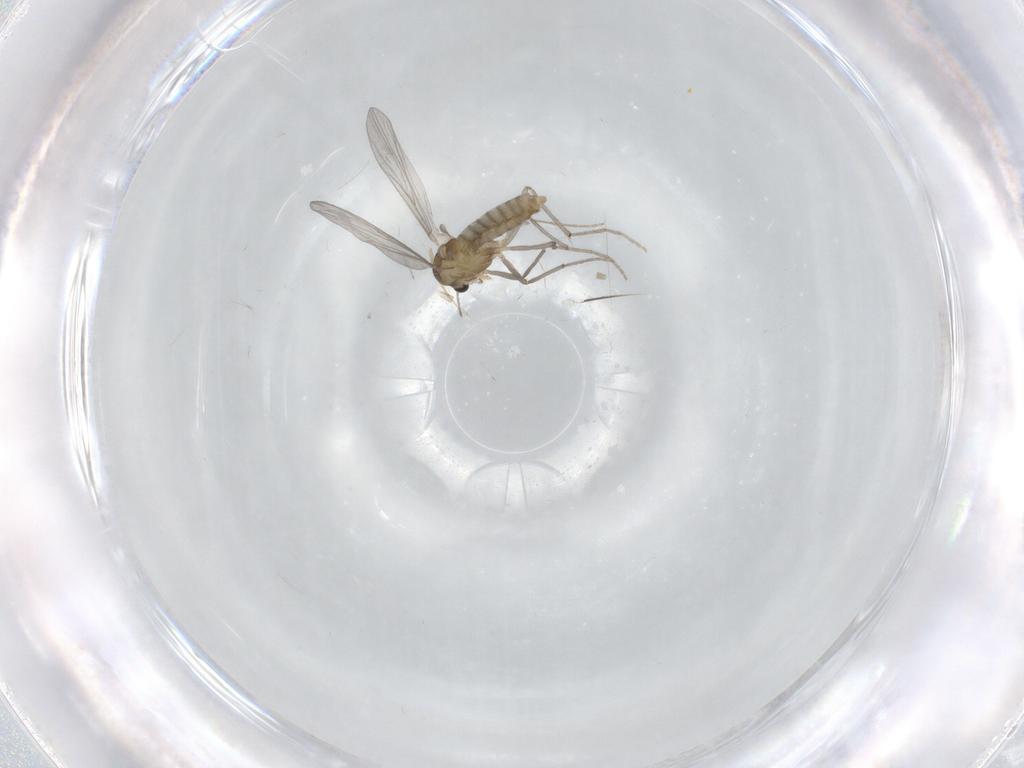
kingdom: Animalia
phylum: Arthropoda
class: Insecta
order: Diptera
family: Chironomidae
